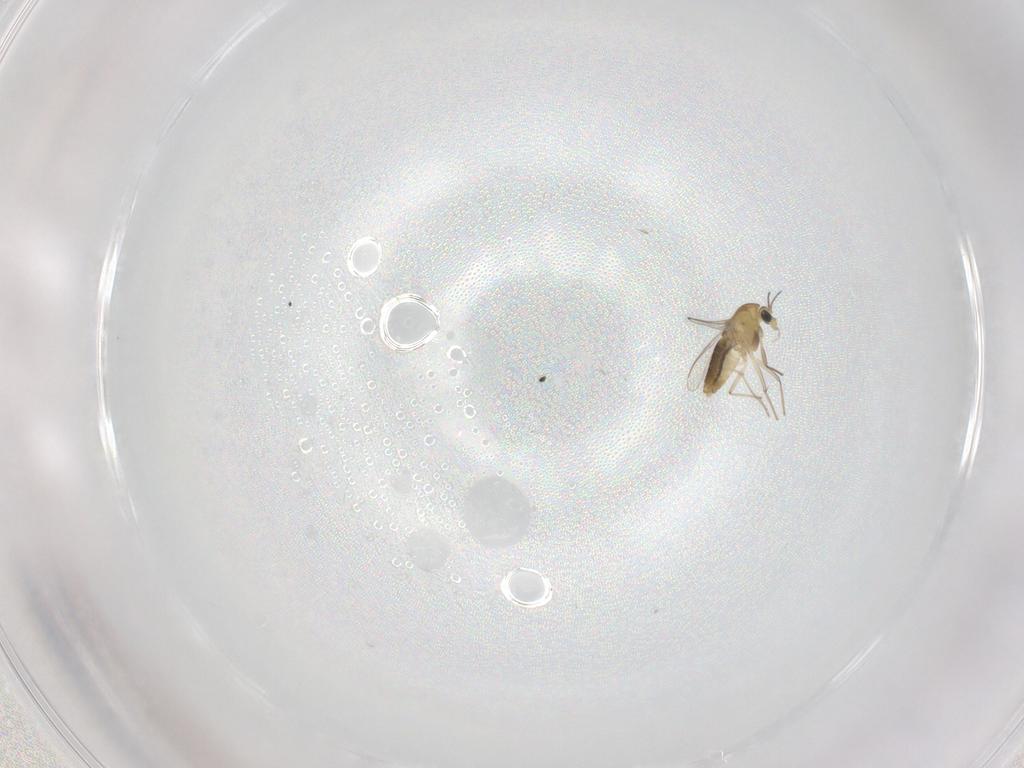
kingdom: Animalia
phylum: Arthropoda
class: Insecta
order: Diptera
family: Chironomidae
